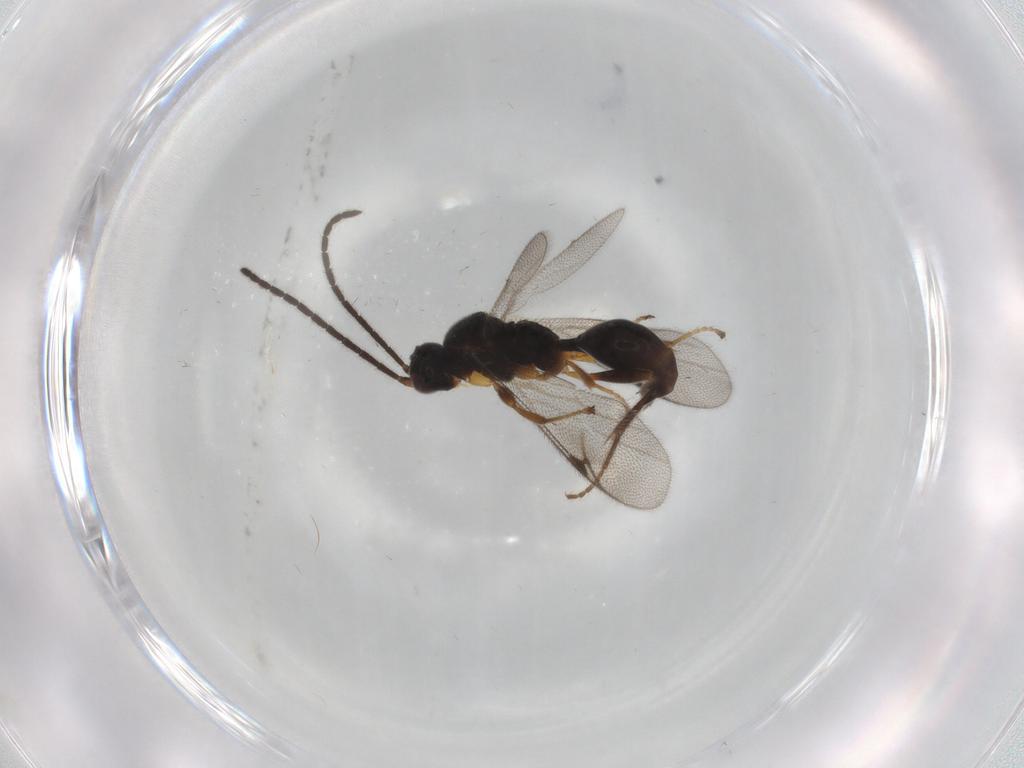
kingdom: Animalia
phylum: Arthropoda
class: Insecta
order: Hymenoptera
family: Proctotrupidae
